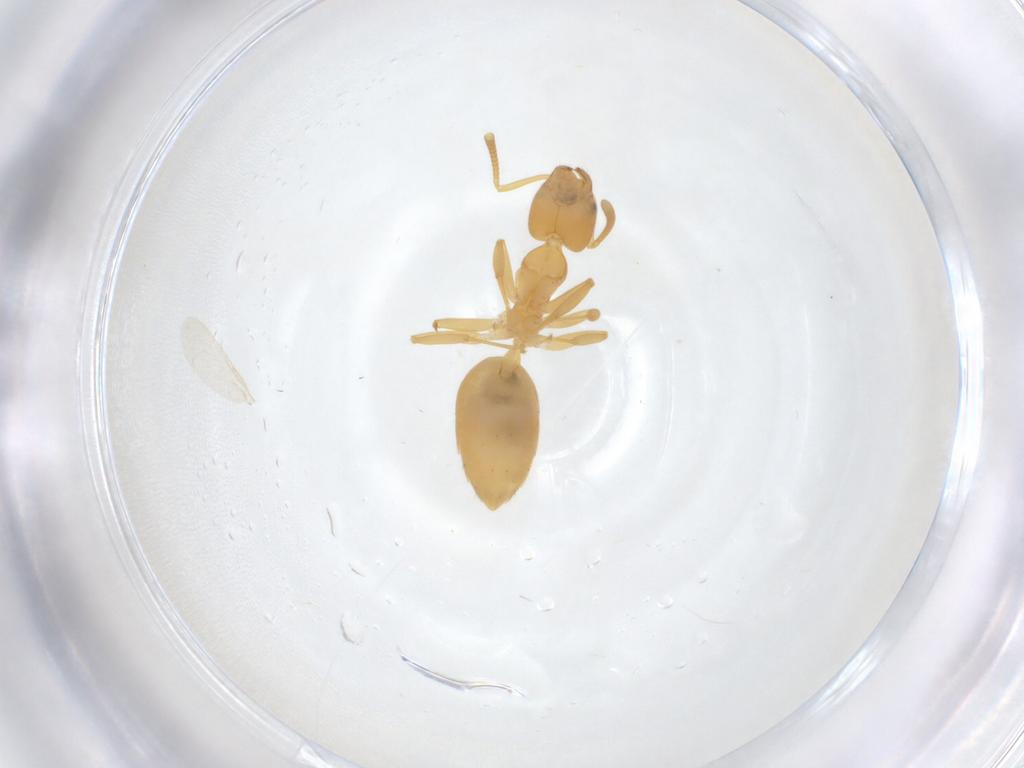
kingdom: Animalia
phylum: Arthropoda
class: Insecta
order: Hymenoptera
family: Formicidae
